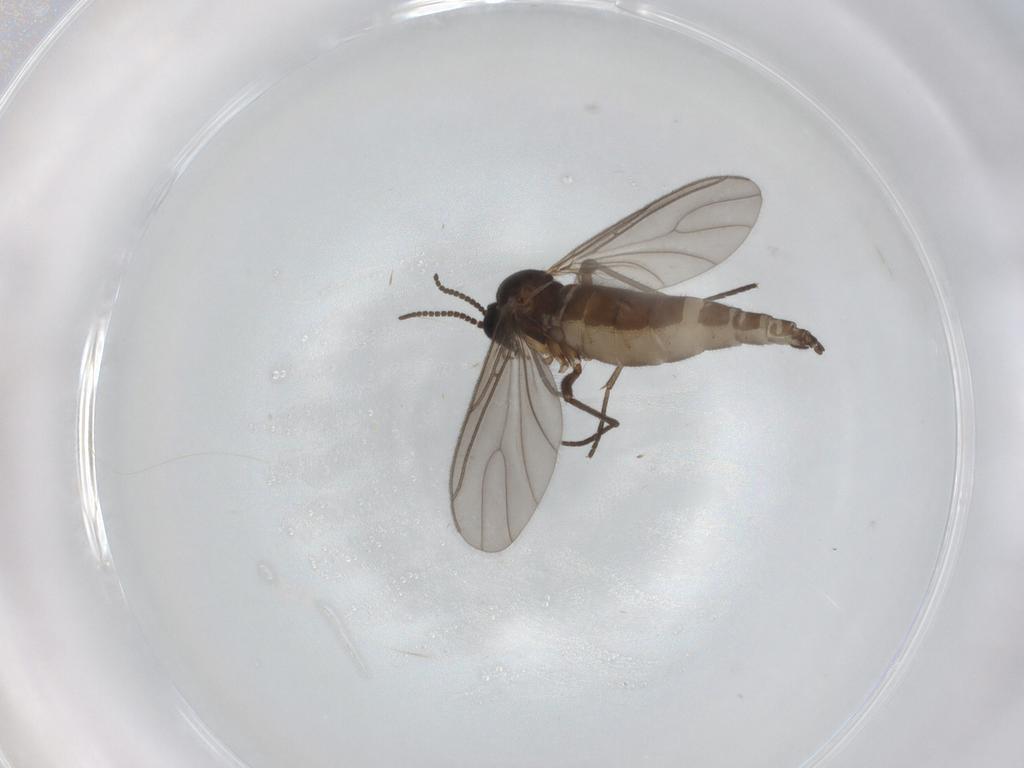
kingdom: Animalia
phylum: Arthropoda
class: Insecta
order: Diptera
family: Sciaridae
